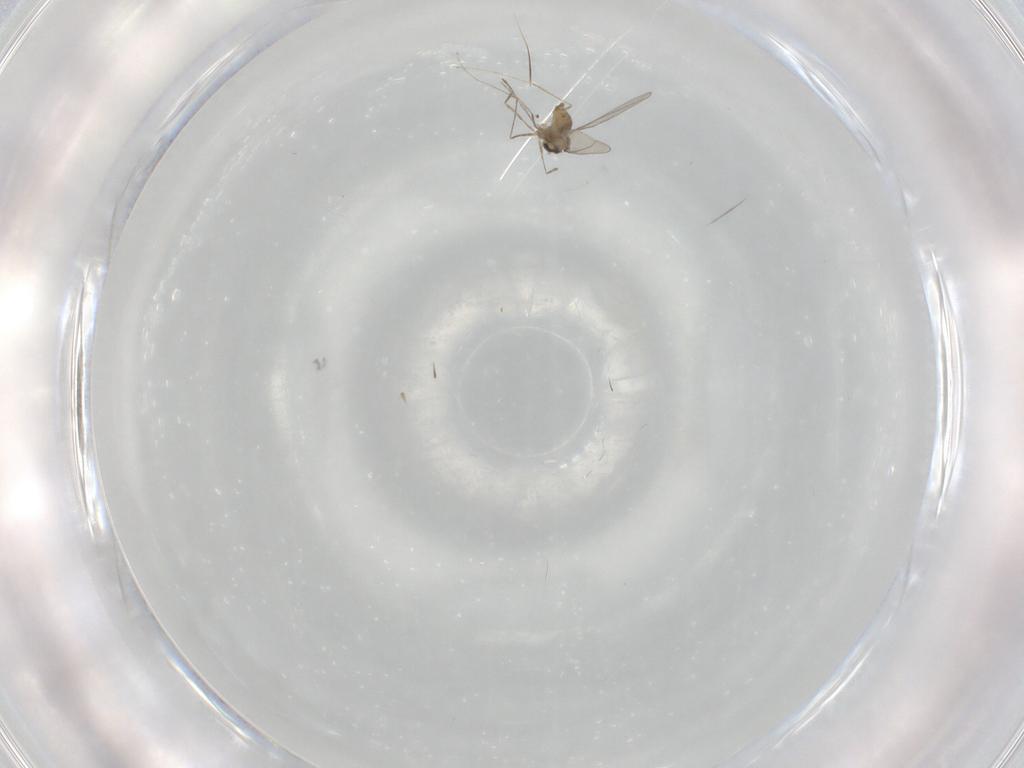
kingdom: Animalia
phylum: Arthropoda
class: Insecta
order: Diptera
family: Cecidomyiidae
